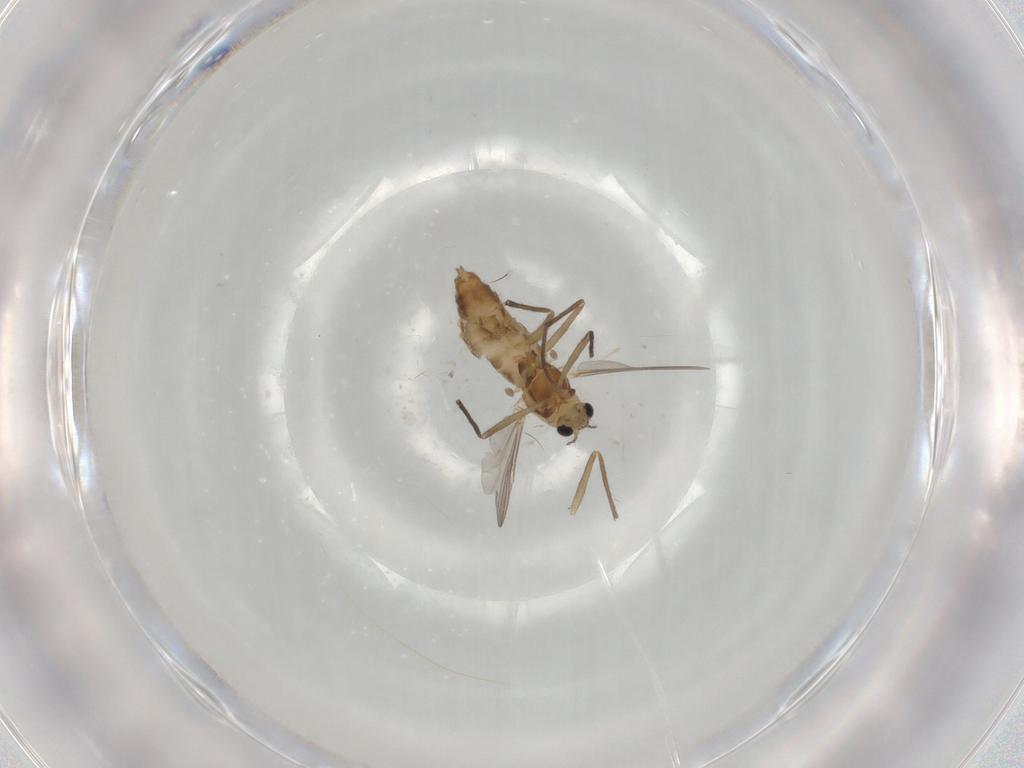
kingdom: Animalia
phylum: Arthropoda
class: Insecta
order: Diptera
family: Chironomidae
